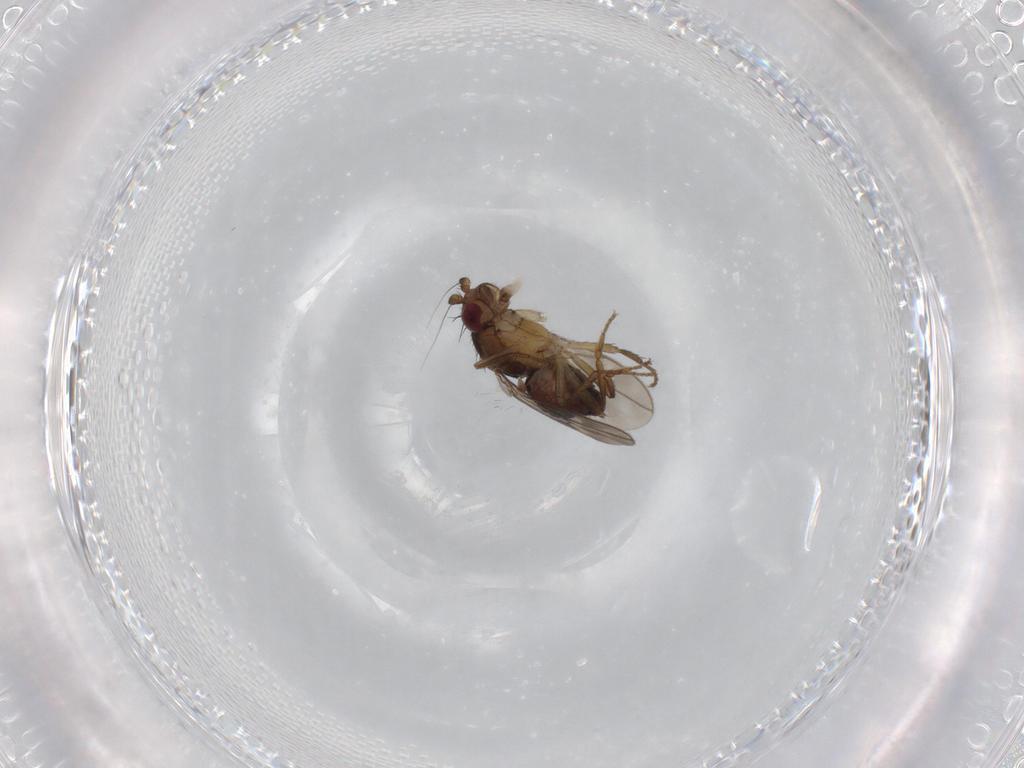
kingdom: Animalia
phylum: Arthropoda
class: Insecta
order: Diptera
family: Sphaeroceridae
